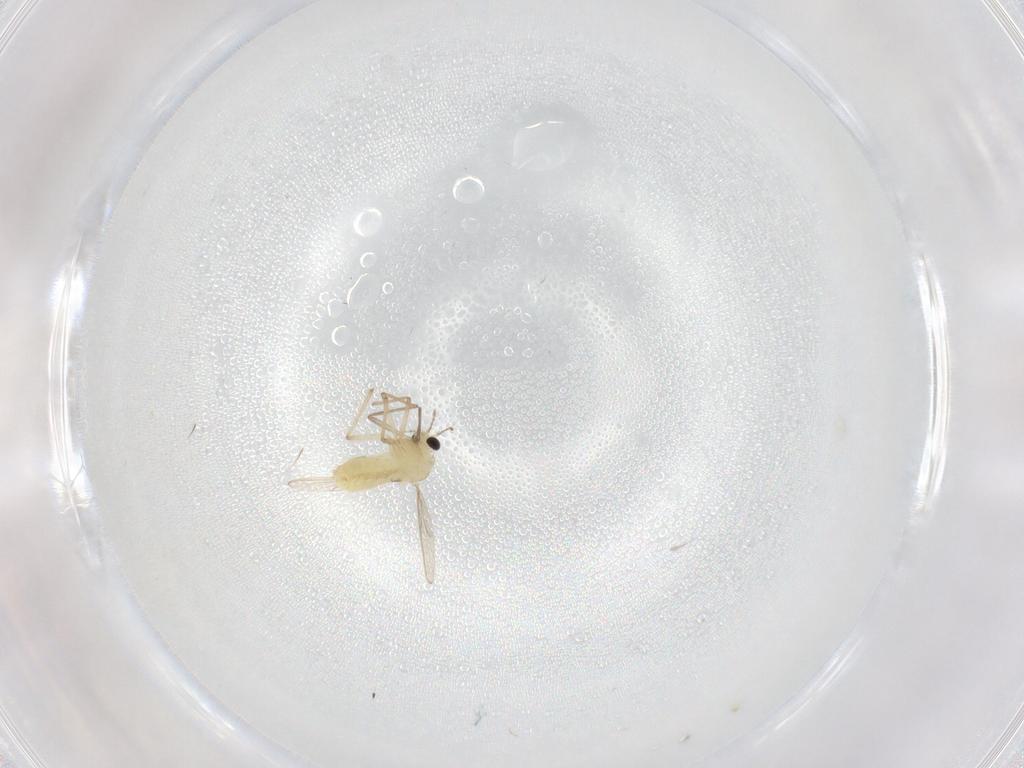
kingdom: Animalia
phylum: Arthropoda
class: Insecta
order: Diptera
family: Chironomidae
